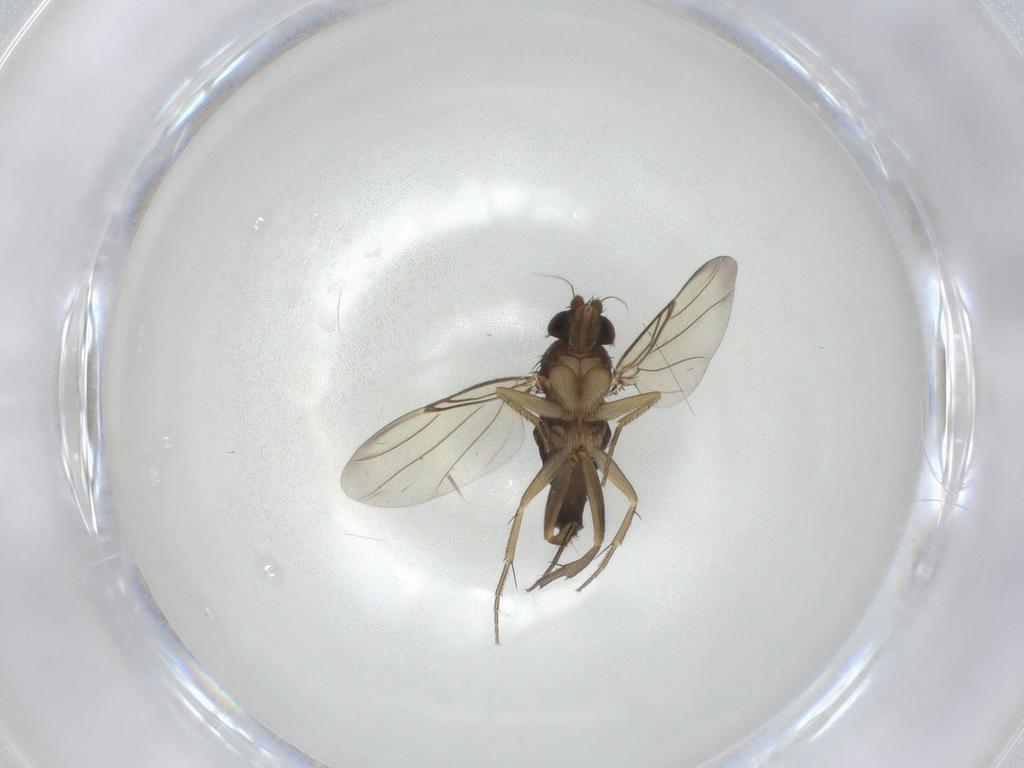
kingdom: Animalia
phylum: Arthropoda
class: Insecta
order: Diptera
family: Phoridae
